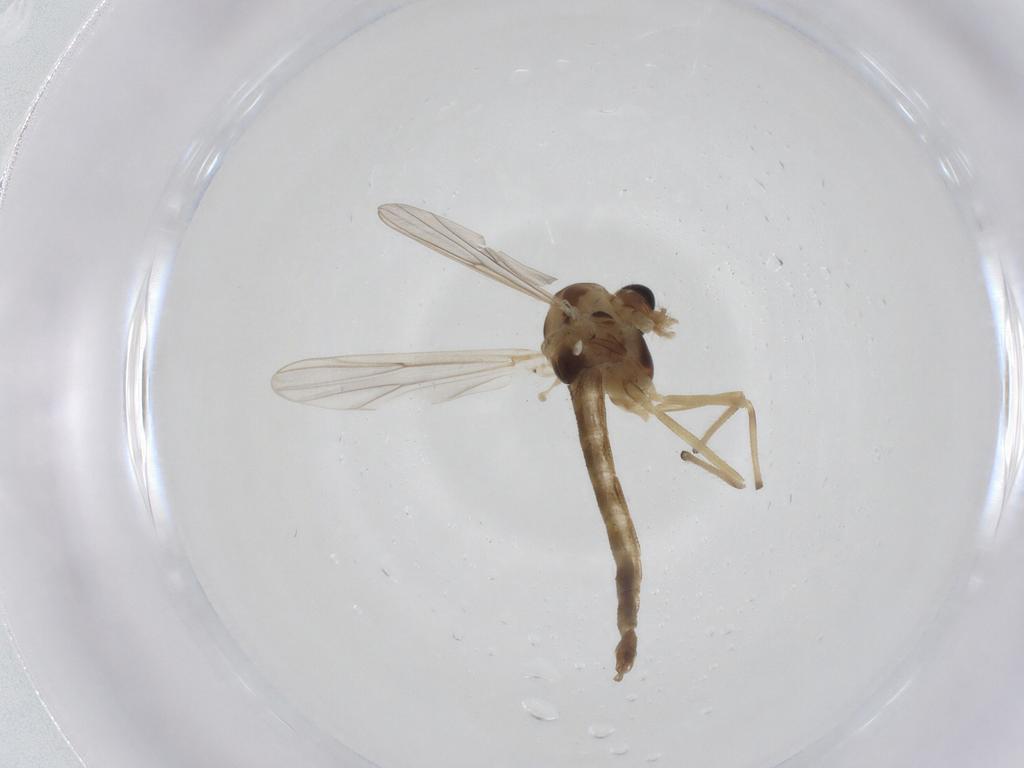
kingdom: Animalia
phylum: Arthropoda
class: Insecta
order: Diptera
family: Chironomidae
